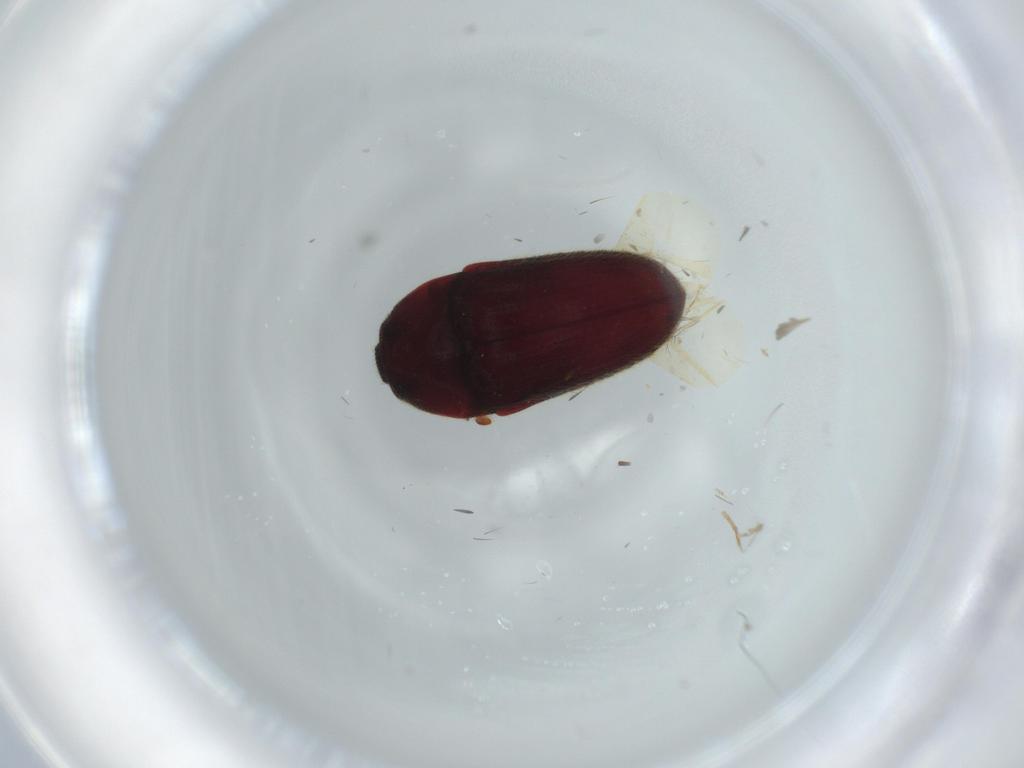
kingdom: Animalia
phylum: Arthropoda
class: Insecta
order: Coleoptera
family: Throscidae
